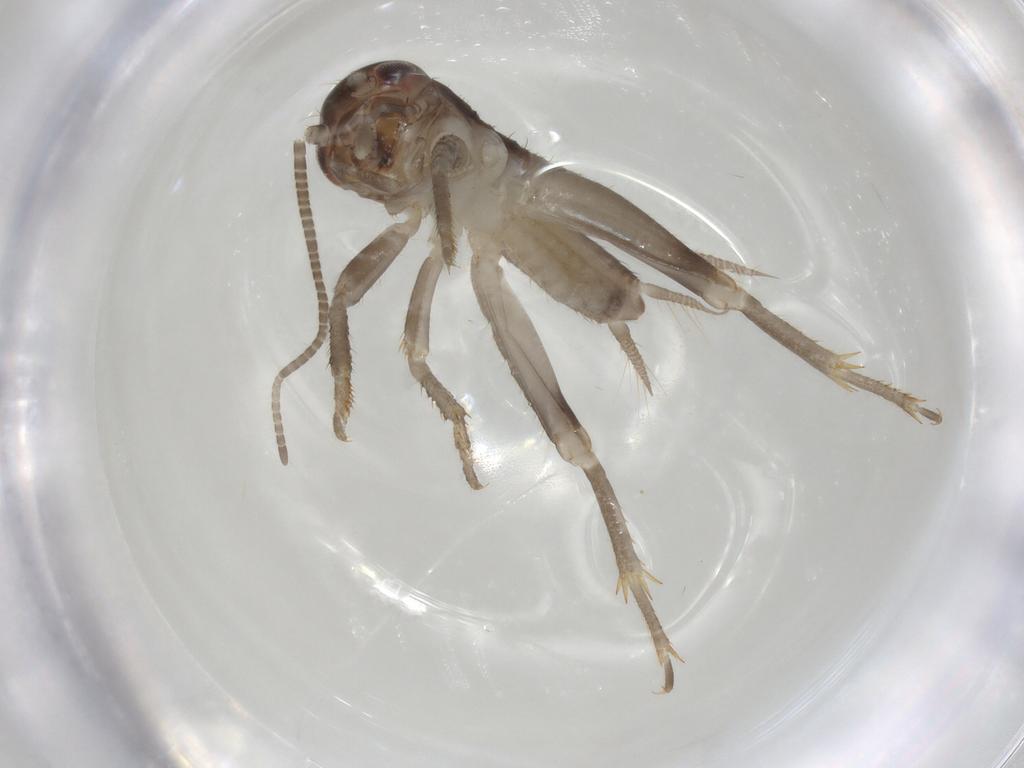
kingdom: Animalia
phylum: Arthropoda
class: Insecta
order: Orthoptera
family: Gryllidae
